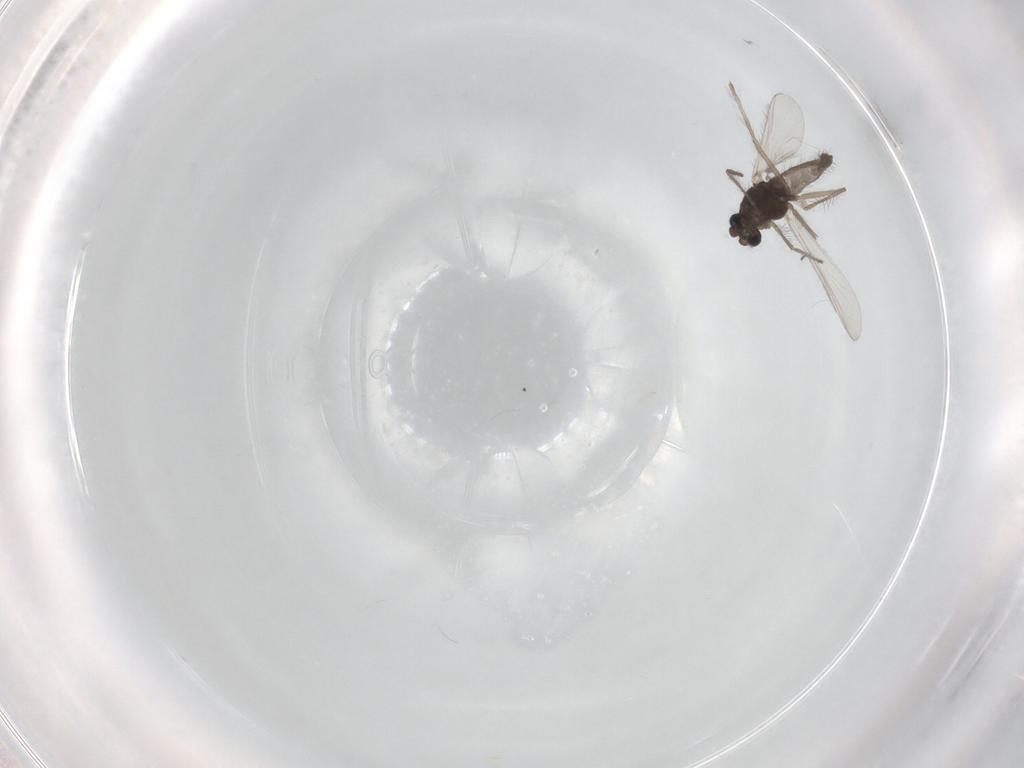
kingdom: Animalia
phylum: Arthropoda
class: Insecta
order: Diptera
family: Chironomidae
